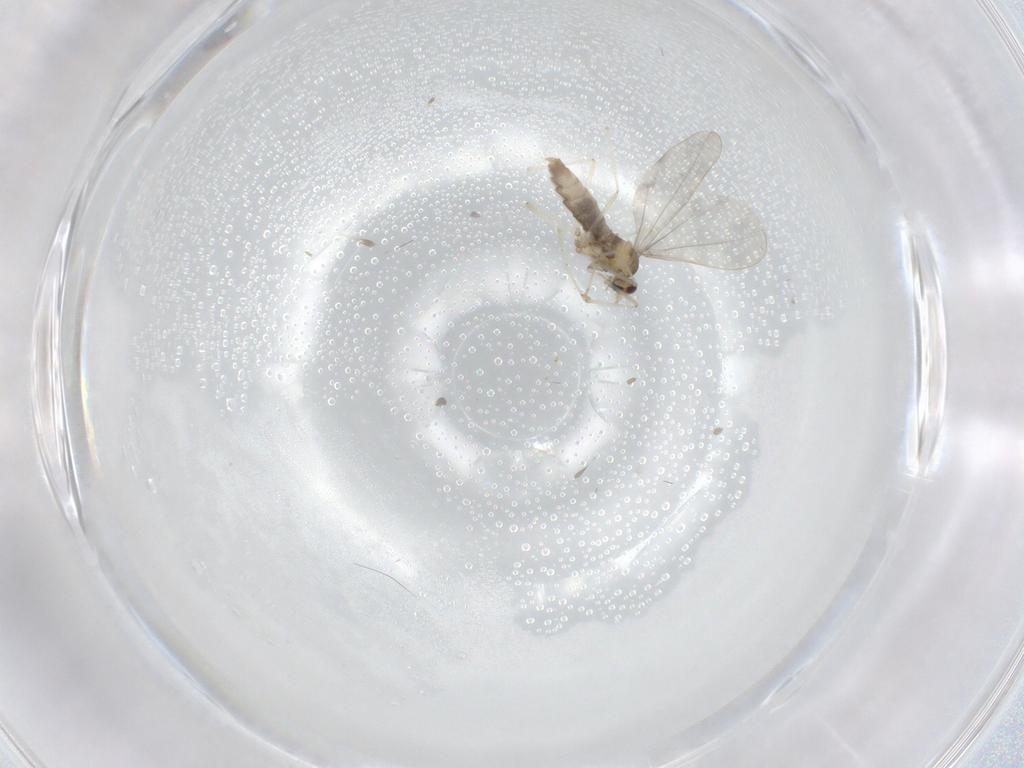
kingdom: Animalia
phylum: Arthropoda
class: Insecta
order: Diptera
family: Cecidomyiidae
